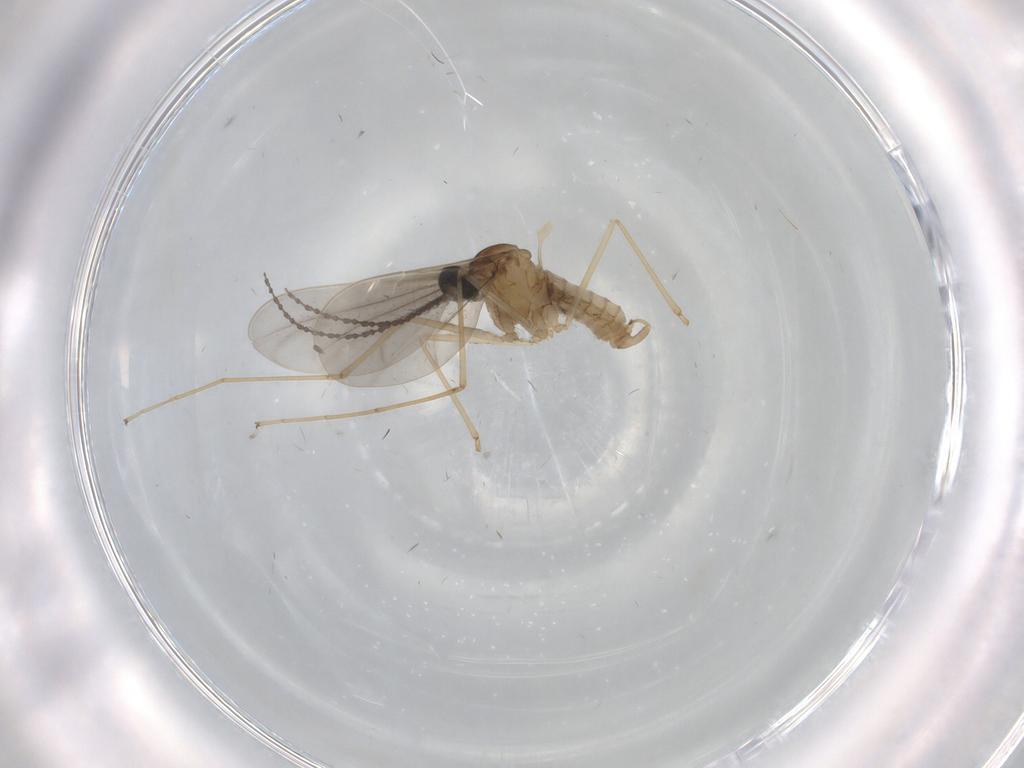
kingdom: Animalia
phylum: Arthropoda
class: Insecta
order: Diptera
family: Cecidomyiidae
